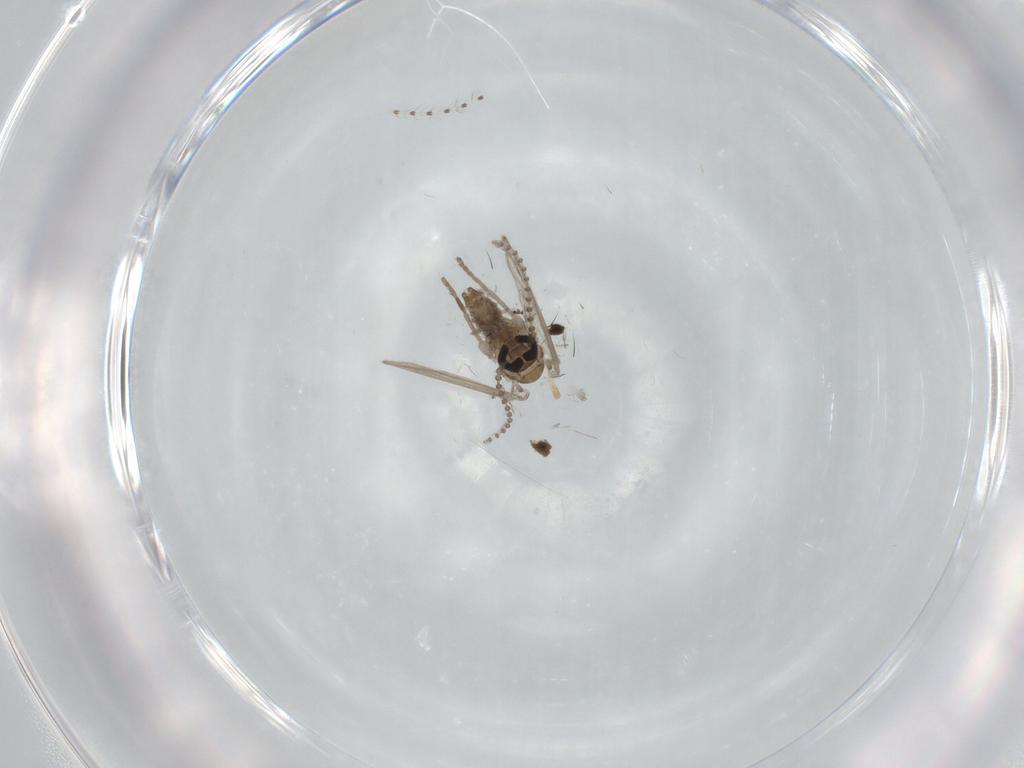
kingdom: Animalia
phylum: Arthropoda
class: Insecta
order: Diptera
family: Psychodidae
